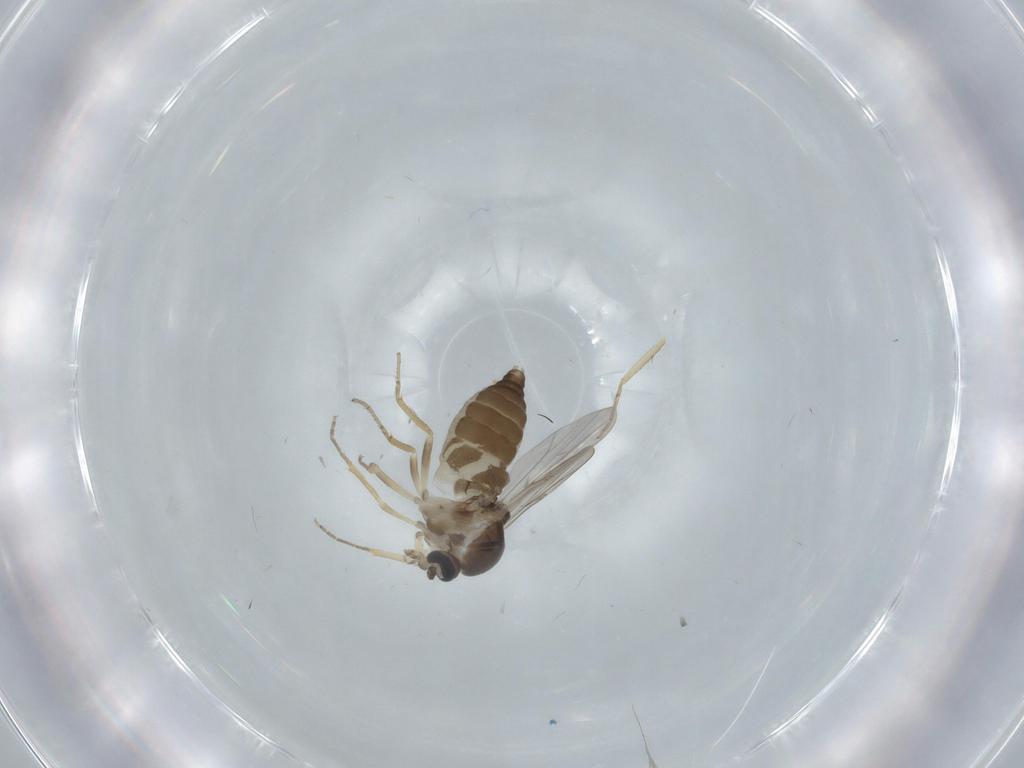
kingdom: Animalia
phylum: Arthropoda
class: Insecta
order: Diptera
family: Ceratopogonidae
